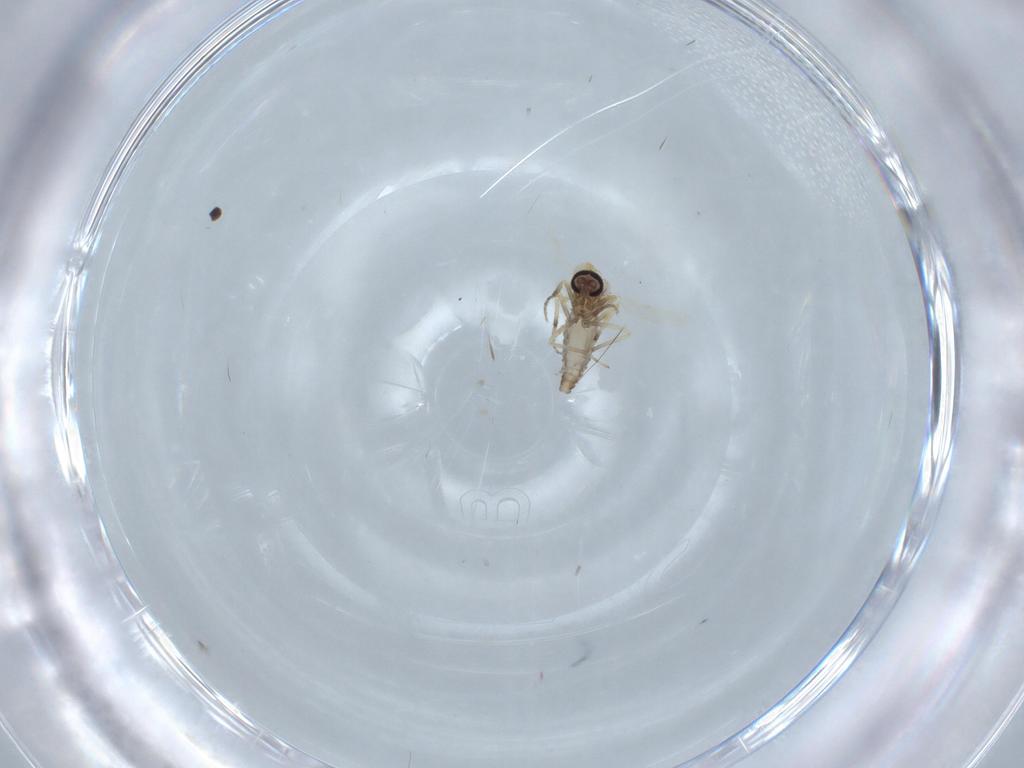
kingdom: Animalia
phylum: Arthropoda
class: Insecta
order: Diptera
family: Ceratopogonidae
